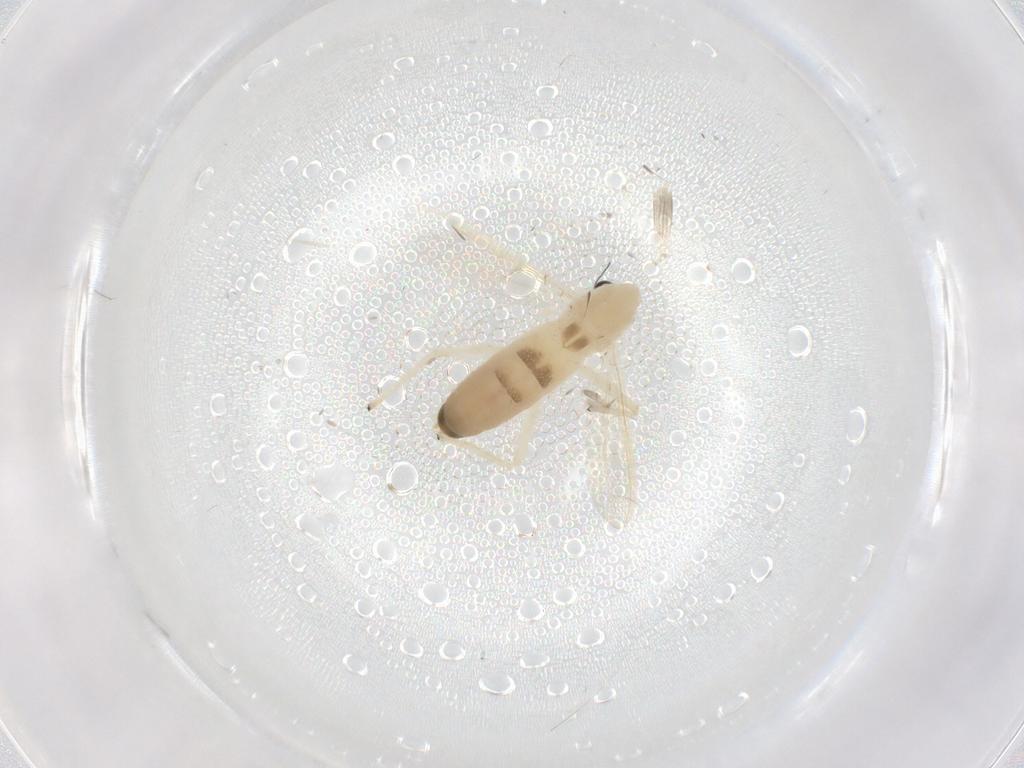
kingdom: Animalia
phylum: Arthropoda
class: Insecta
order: Diptera
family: Chironomidae
